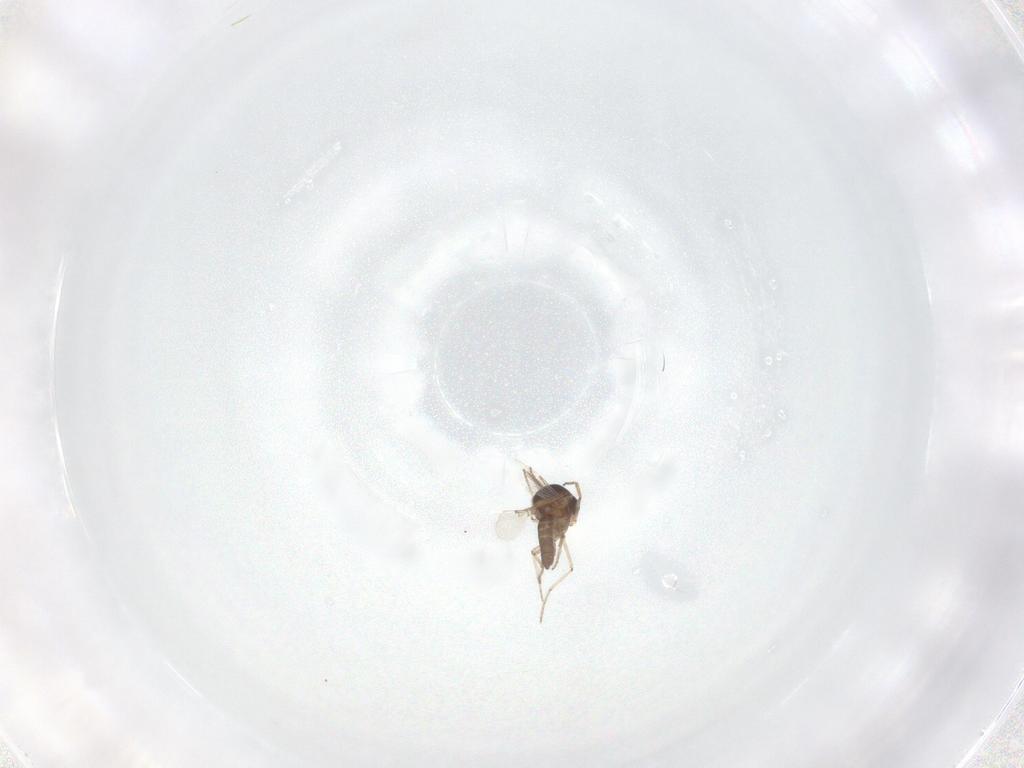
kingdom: Animalia
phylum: Arthropoda
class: Insecta
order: Diptera
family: Ceratopogonidae
